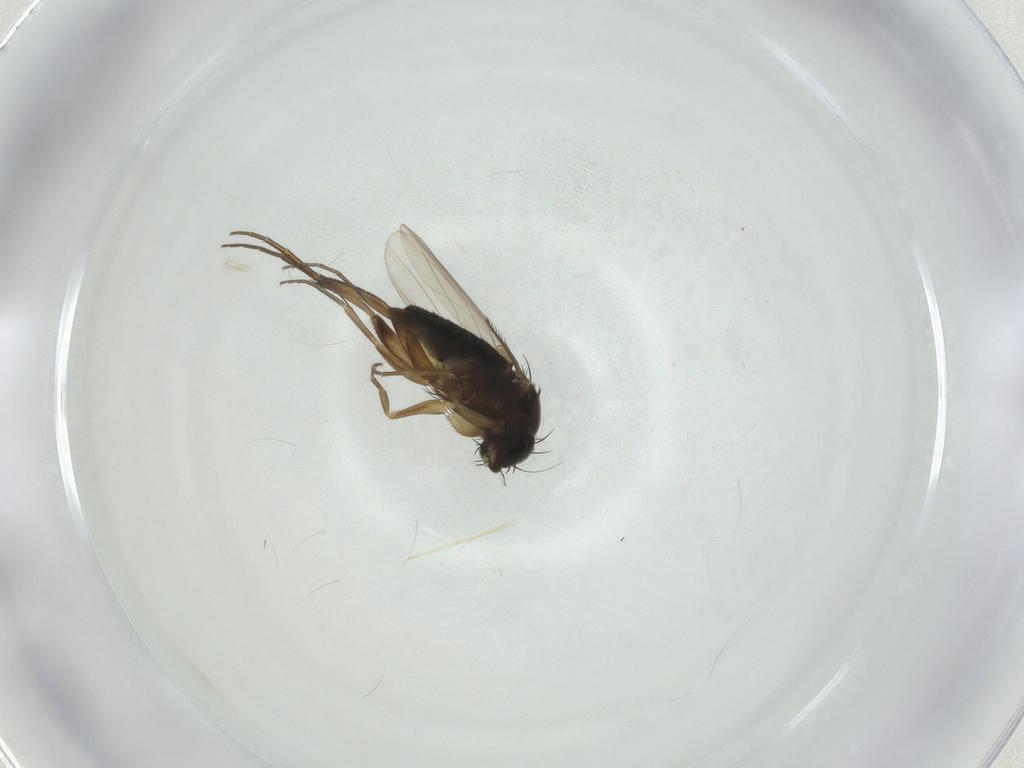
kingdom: Animalia
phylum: Arthropoda
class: Insecta
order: Diptera
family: Phoridae
